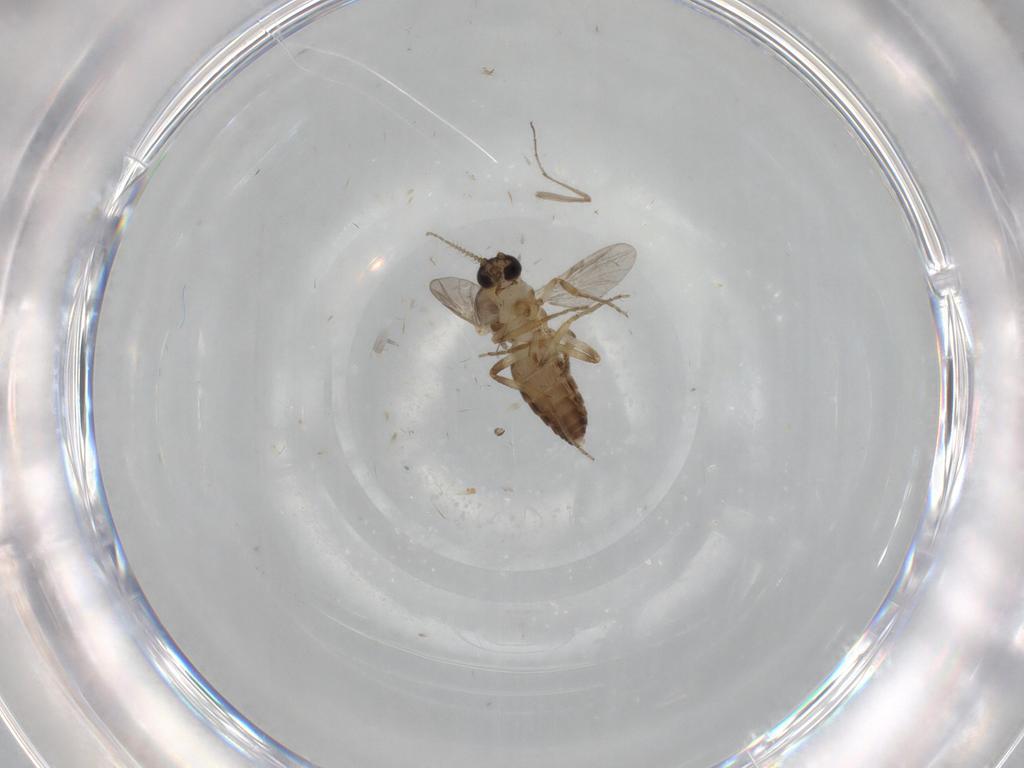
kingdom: Animalia
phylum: Arthropoda
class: Insecta
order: Diptera
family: Ceratopogonidae
